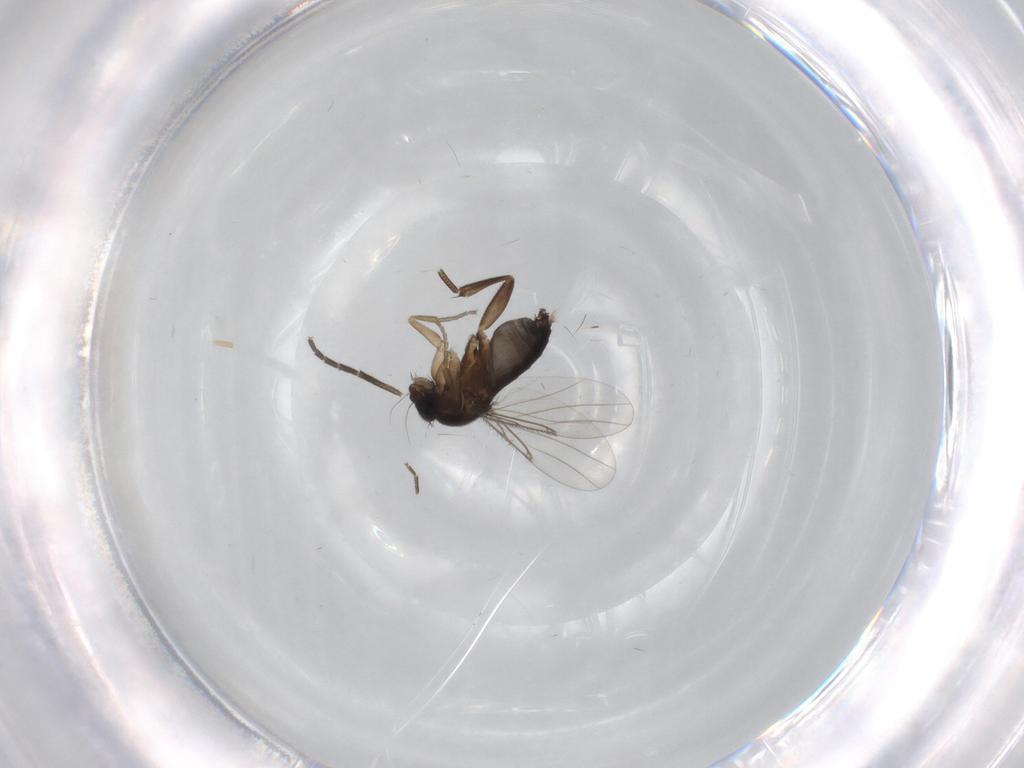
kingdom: Animalia
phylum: Arthropoda
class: Insecta
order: Diptera
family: Phoridae
